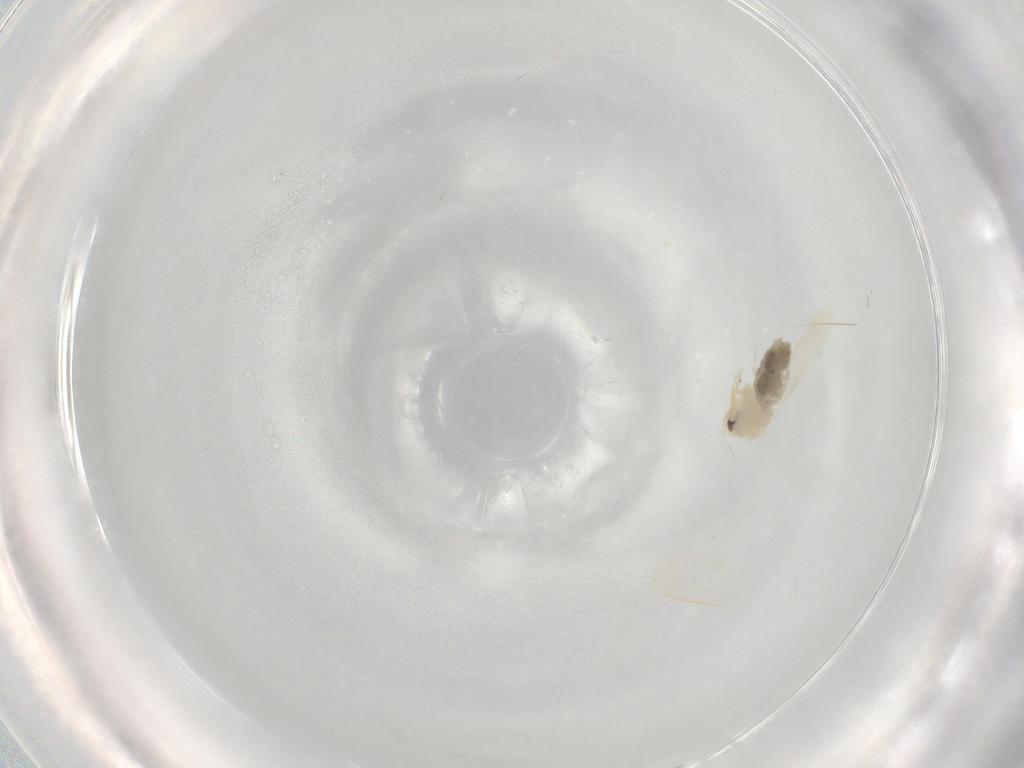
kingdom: Animalia
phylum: Arthropoda
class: Insecta
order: Hemiptera
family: Aleyrodidae
